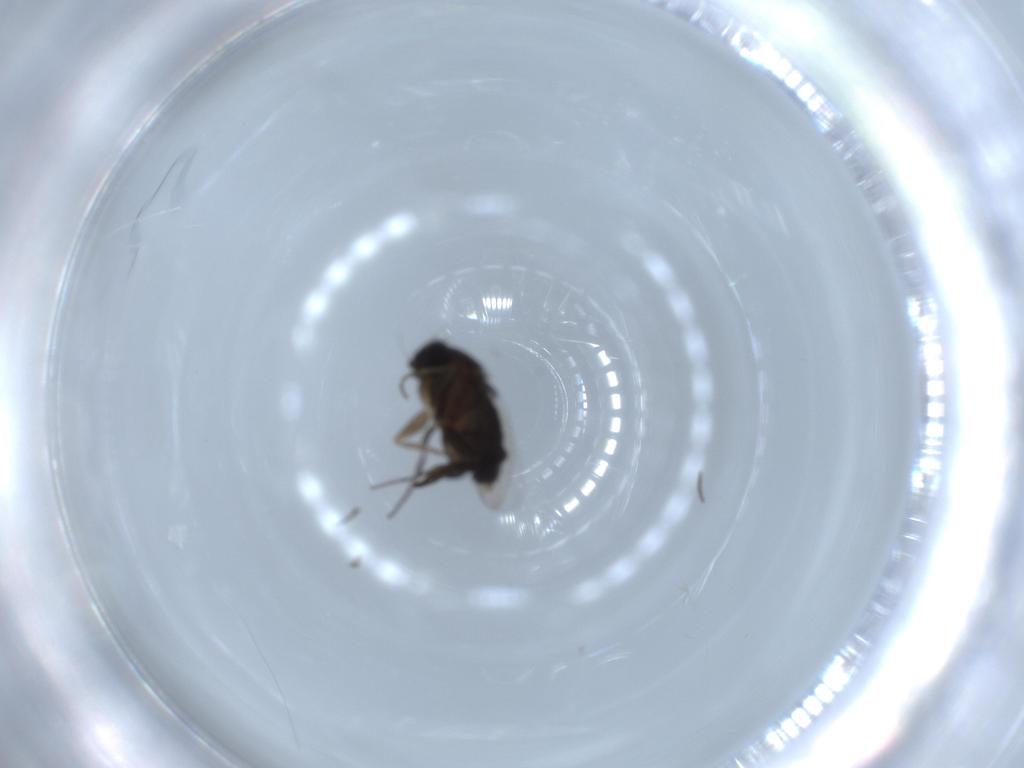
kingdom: Animalia
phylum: Arthropoda
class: Insecta
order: Diptera
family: Phoridae
